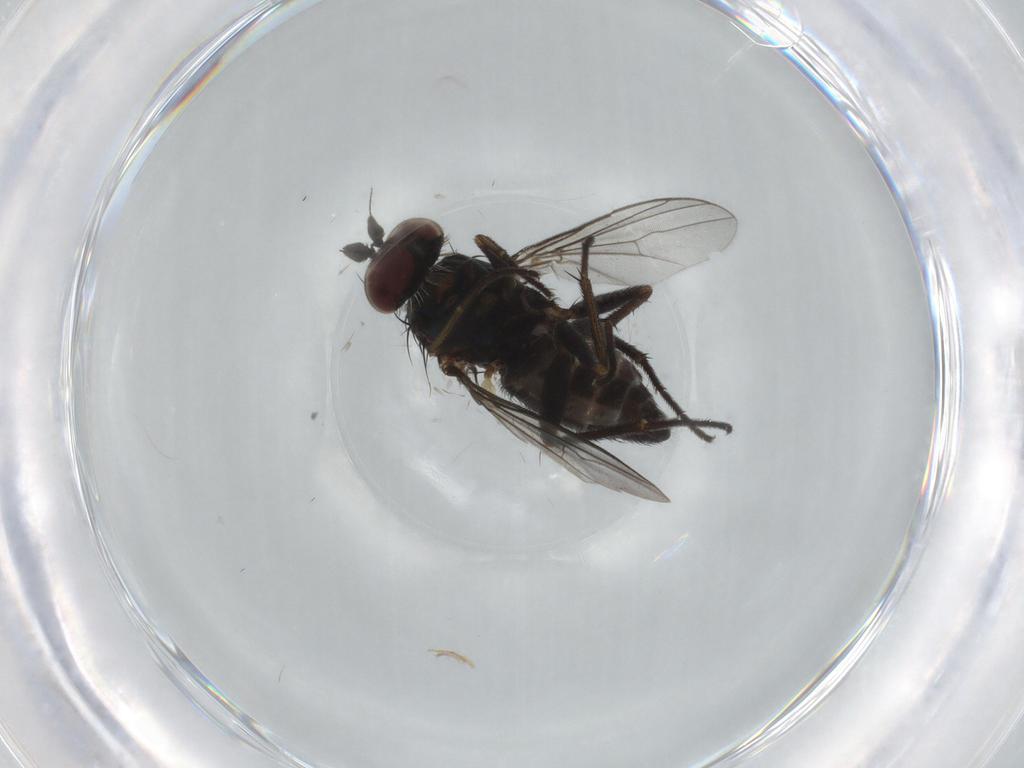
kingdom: Animalia
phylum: Arthropoda
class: Insecta
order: Diptera
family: Dolichopodidae
